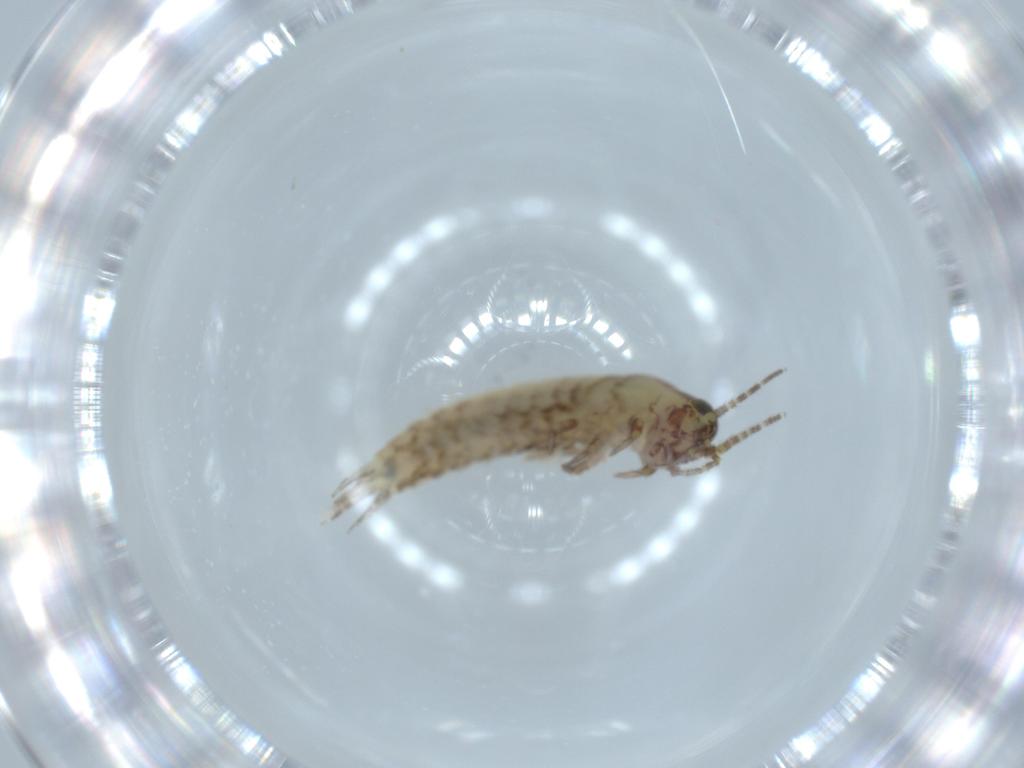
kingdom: Animalia
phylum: Arthropoda
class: Insecta
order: Archaeognatha
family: Machilidae
